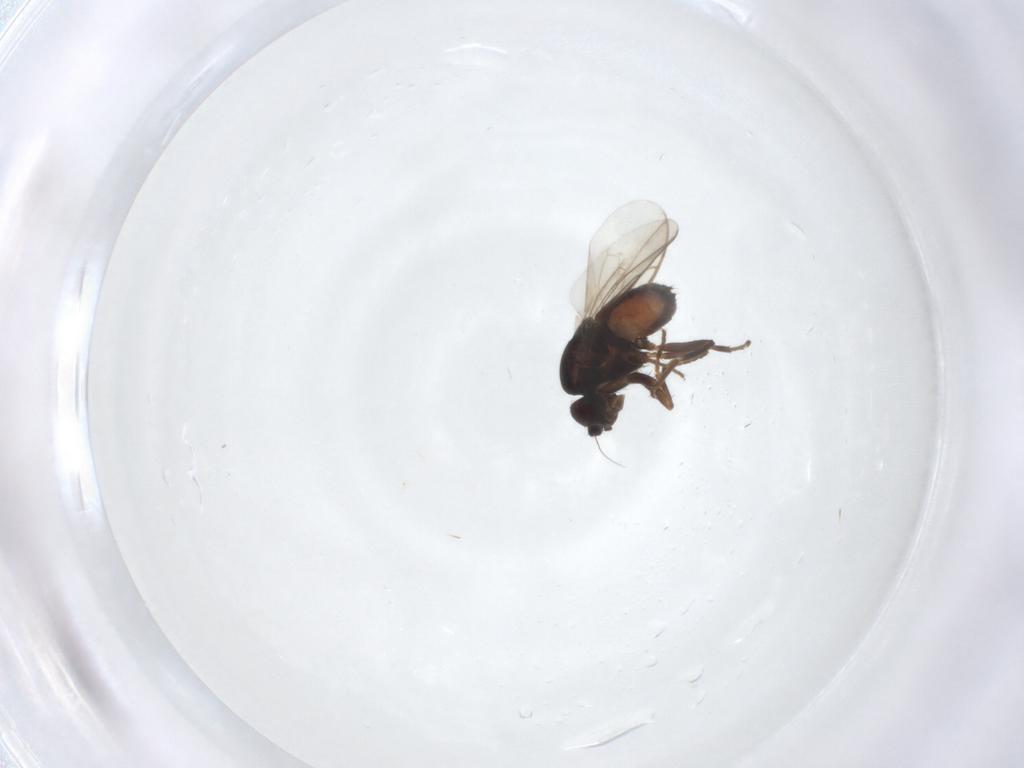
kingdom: Animalia
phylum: Arthropoda
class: Insecta
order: Diptera
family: Sphaeroceridae
